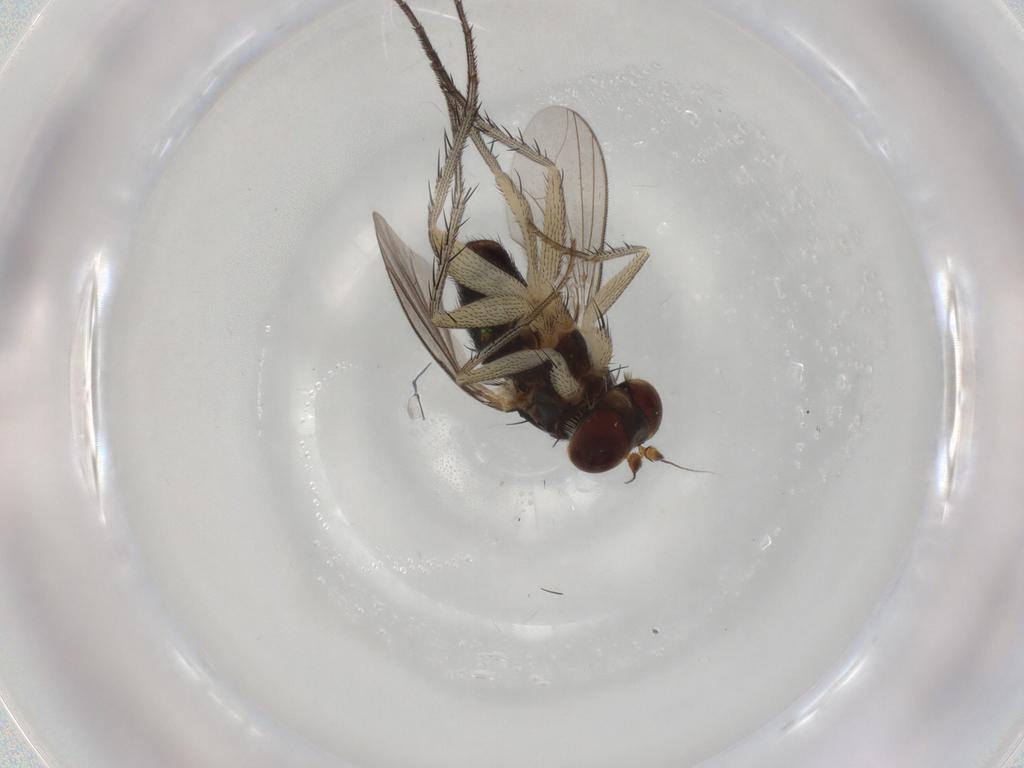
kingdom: Animalia
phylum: Arthropoda
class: Insecta
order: Diptera
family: Dolichopodidae
